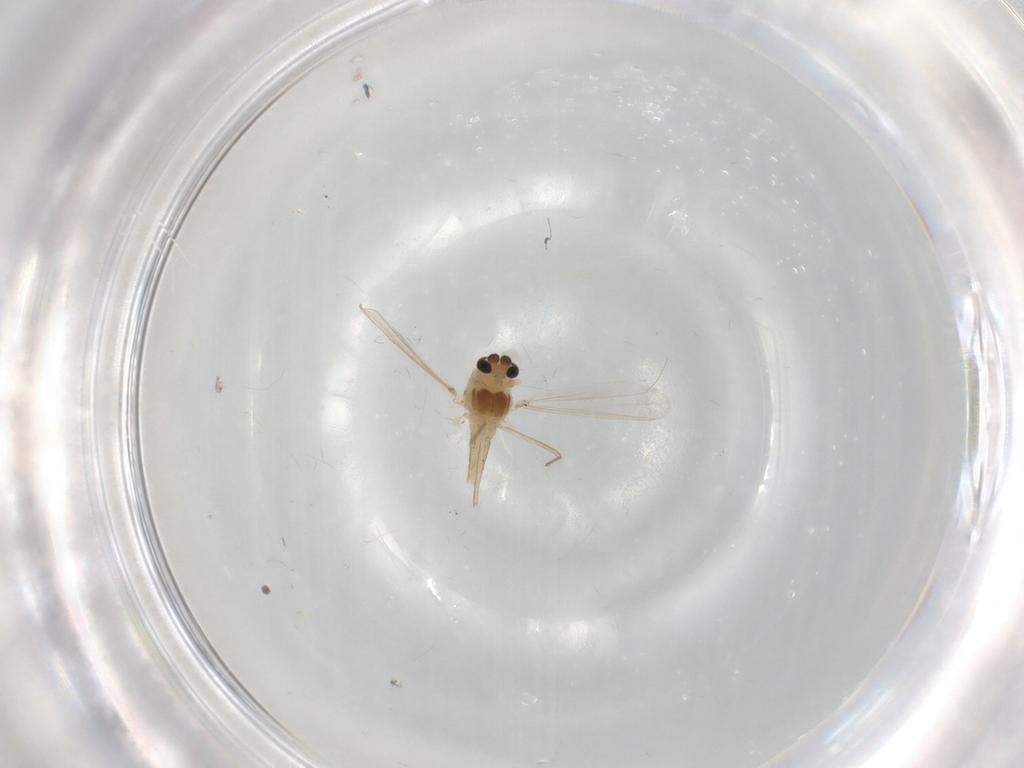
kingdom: Animalia
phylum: Arthropoda
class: Insecta
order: Diptera
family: Chironomidae
